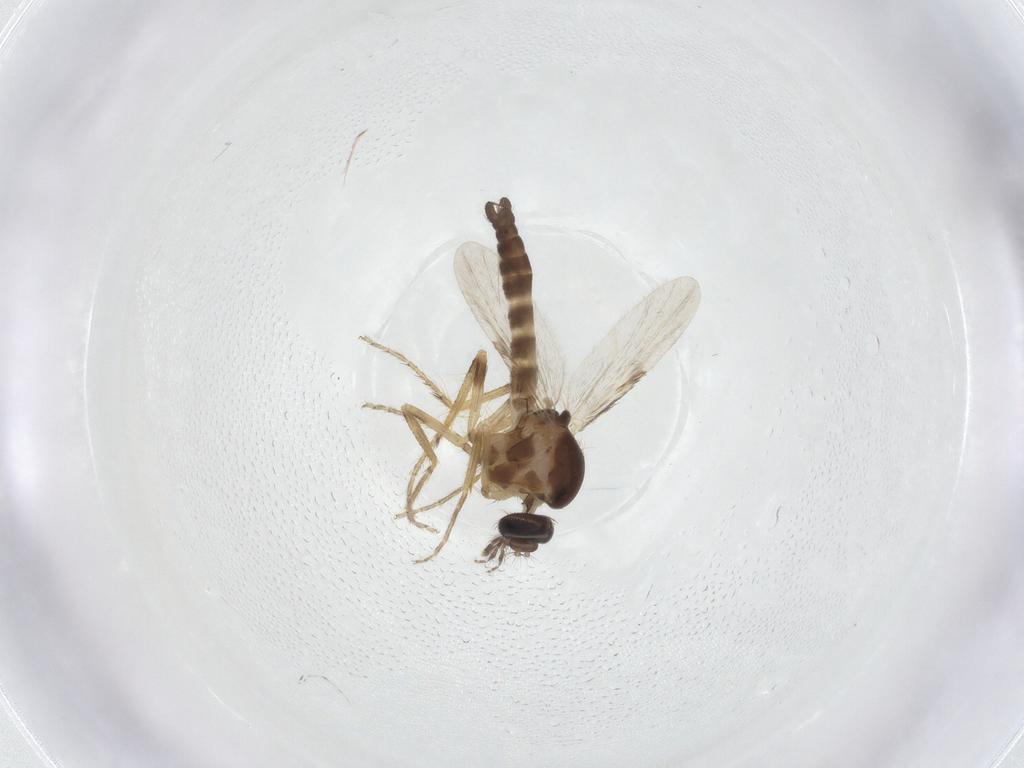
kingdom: Animalia
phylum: Arthropoda
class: Insecta
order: Diptera
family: Ceratopogonidae
